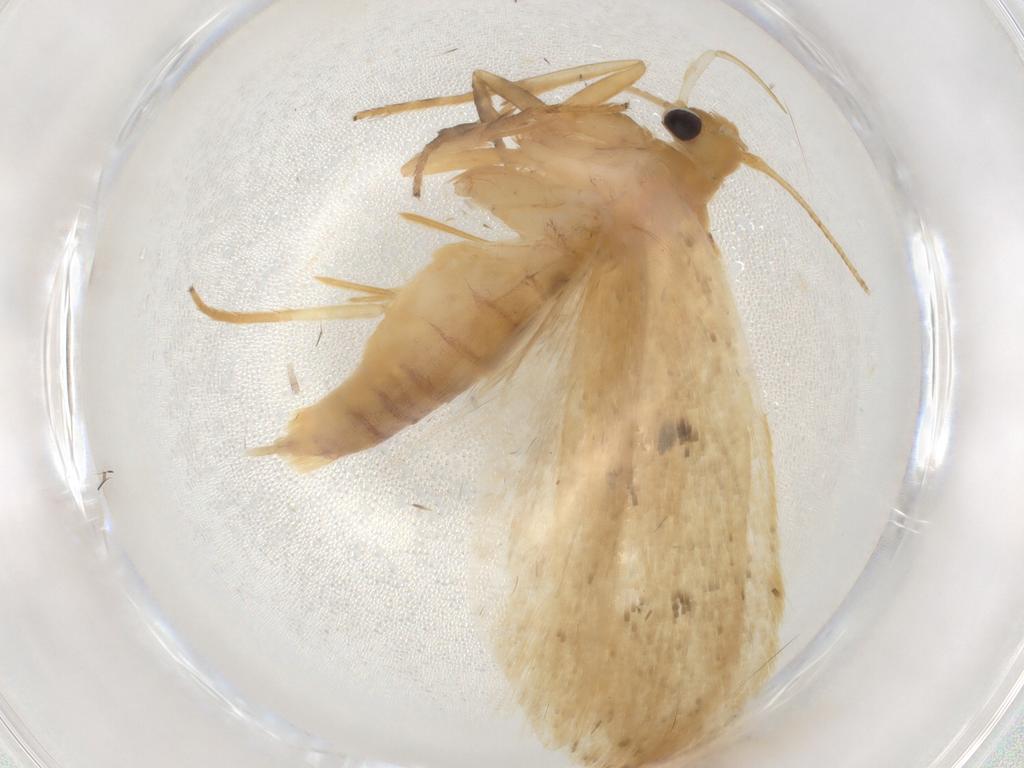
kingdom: Animalia
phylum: Arthropoda
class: Insecta
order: Lepidoptera
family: Depressariidae
